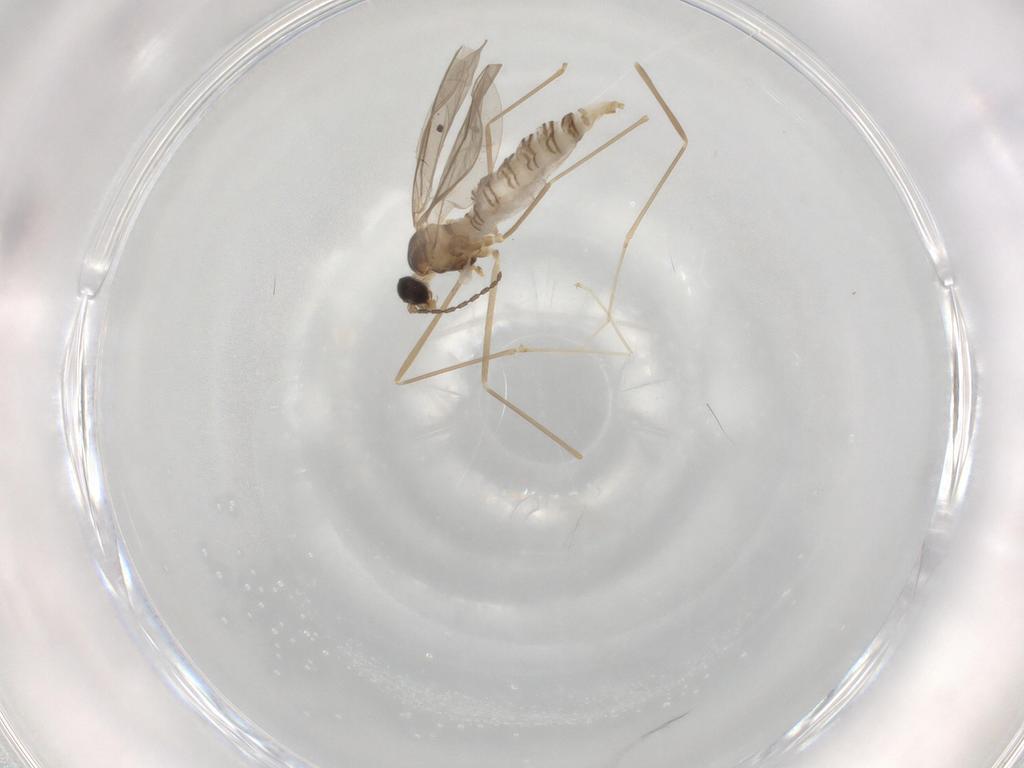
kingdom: Animalia
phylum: Arthropoda
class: Insecta
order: Diptera
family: Cecidomyiidae
